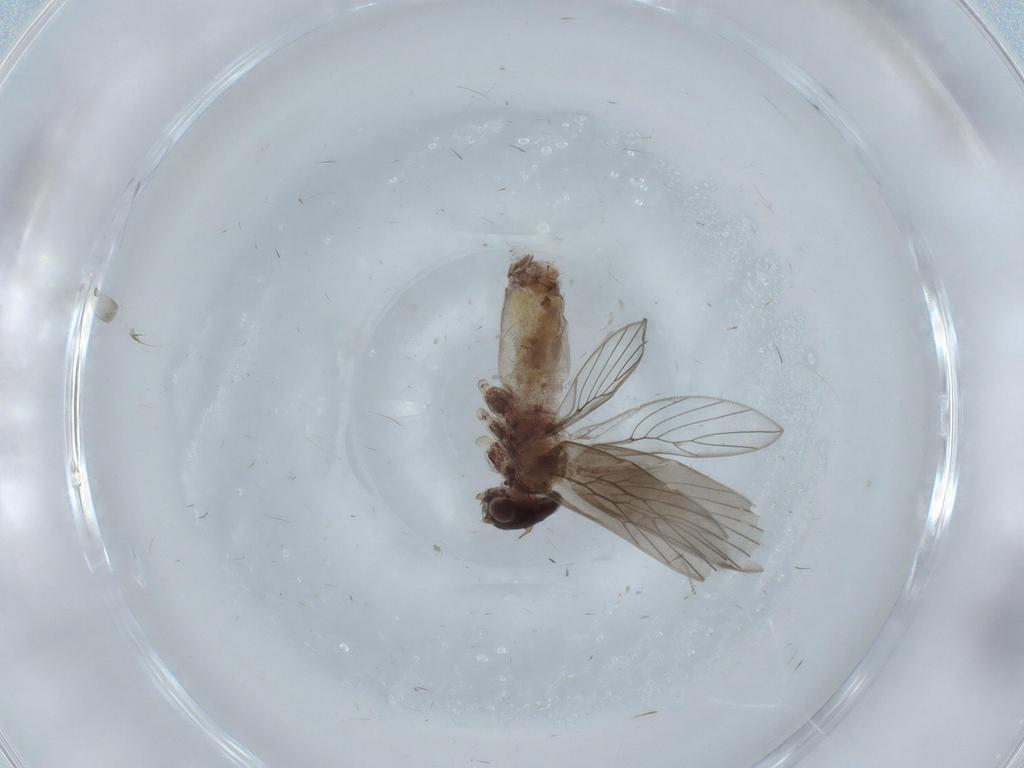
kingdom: Animalia
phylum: Arthropoda
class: Insecta
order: Psocodea
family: Lepidopsocidae
